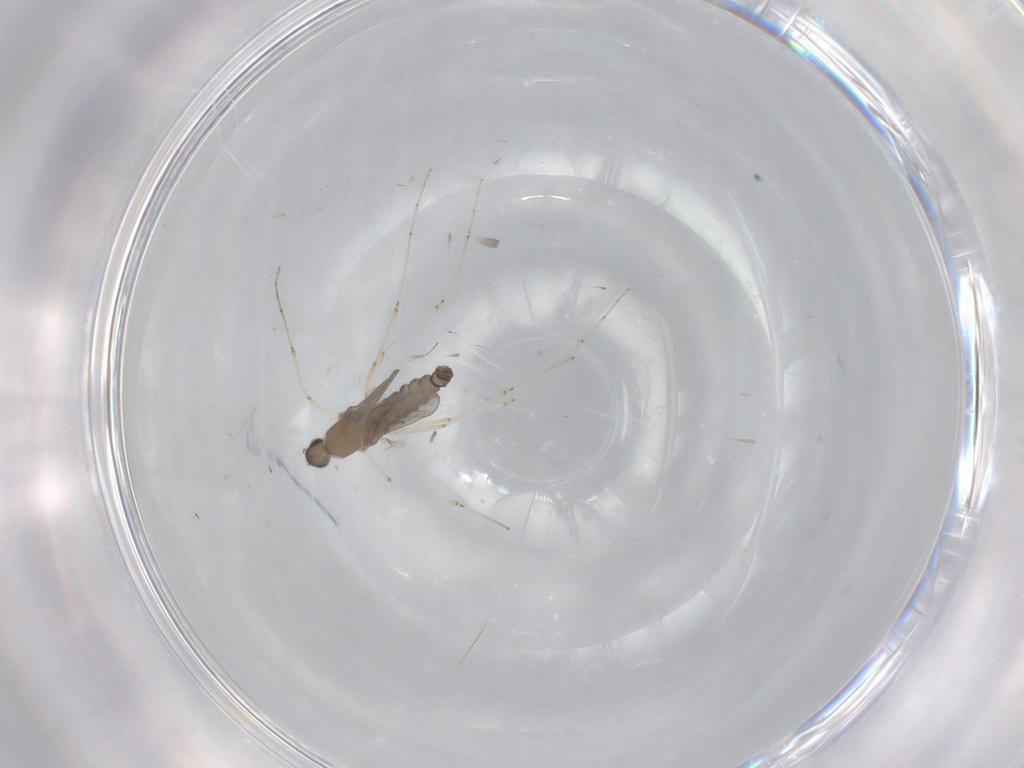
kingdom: Animalia
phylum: Arthropoda
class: Insecta
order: Diptera
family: Cecidomyiidae
